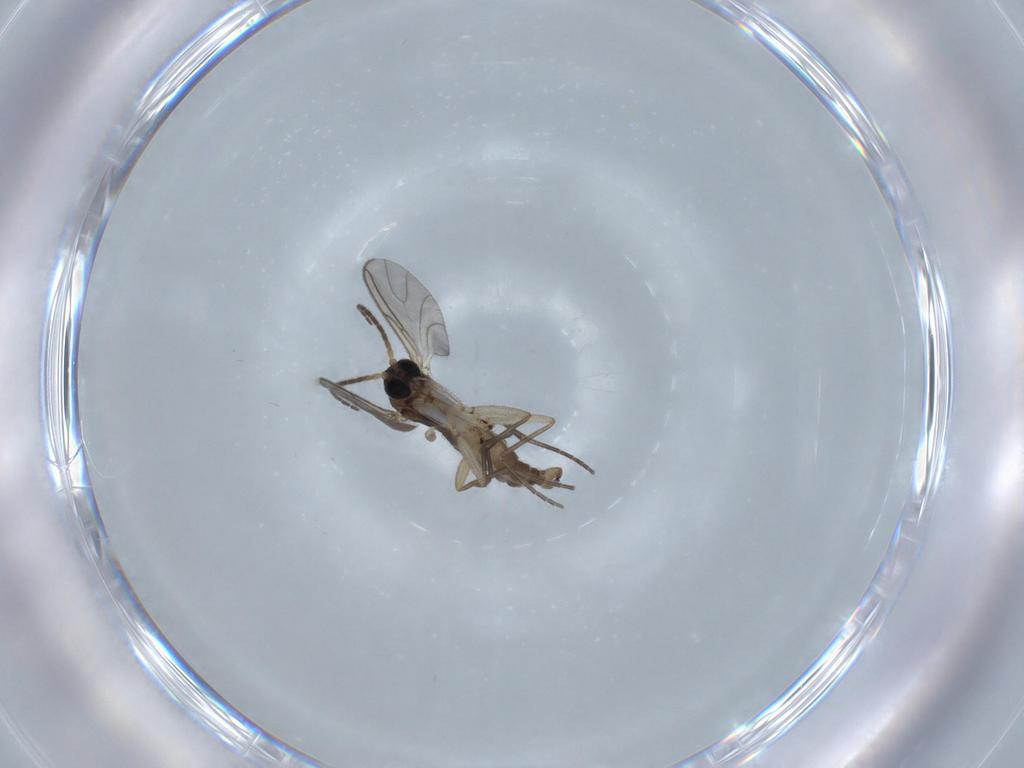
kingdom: Animalia
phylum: Arthropoda
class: Insecta
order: Diptera
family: Sciaridae
